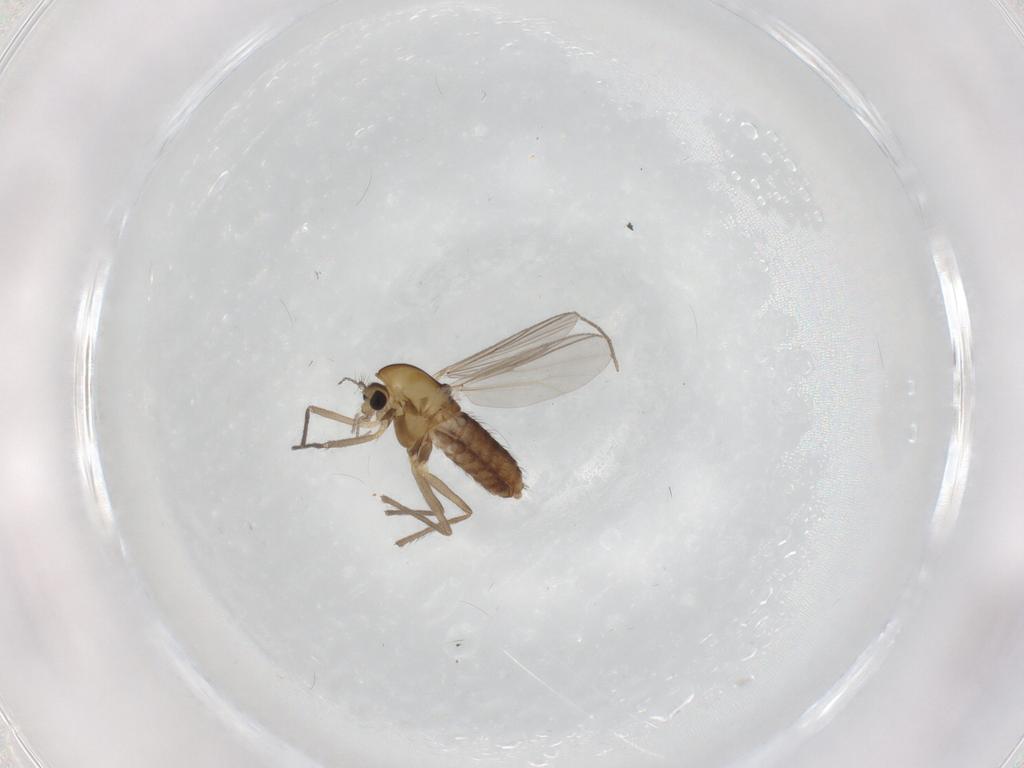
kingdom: Animalia
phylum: Arthropoda
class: Insecta
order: Diptera
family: Chironomidae
